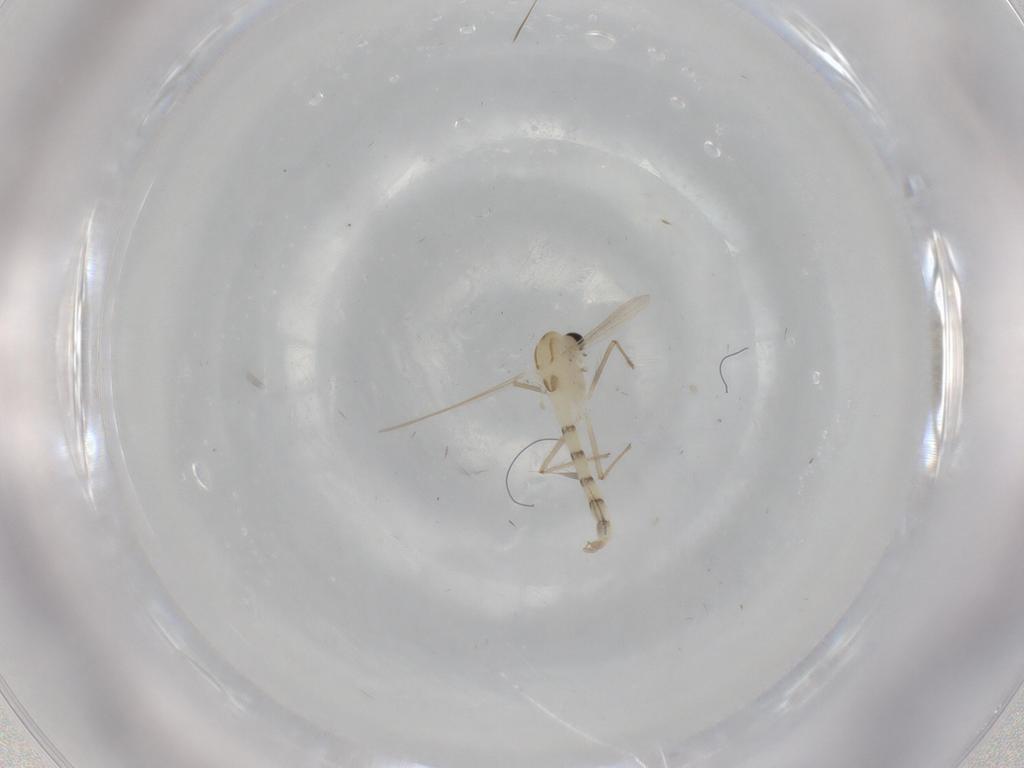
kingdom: Animalia
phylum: Arthropoda
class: Insecta
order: Diptera
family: Chironomidae
